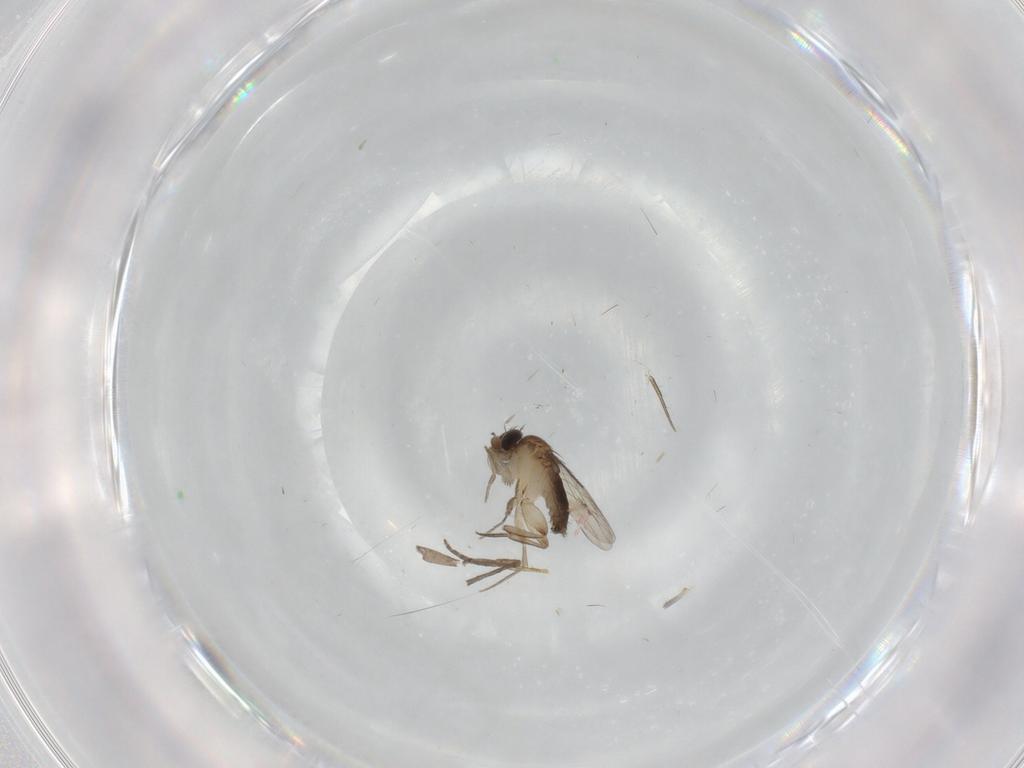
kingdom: Animalia
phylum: Arthropoda
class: Insecta
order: Diptera
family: Phoridae
